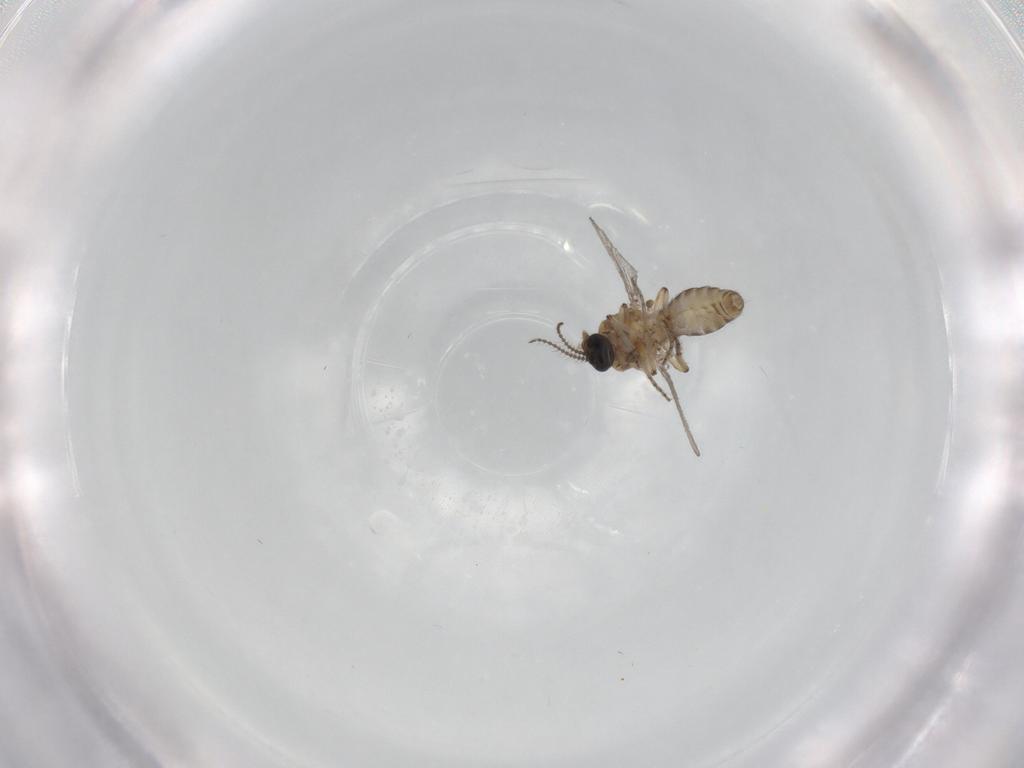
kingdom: Animalia
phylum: Arthropoda
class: Insecta
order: Diptera
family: Ceratopogonidae
